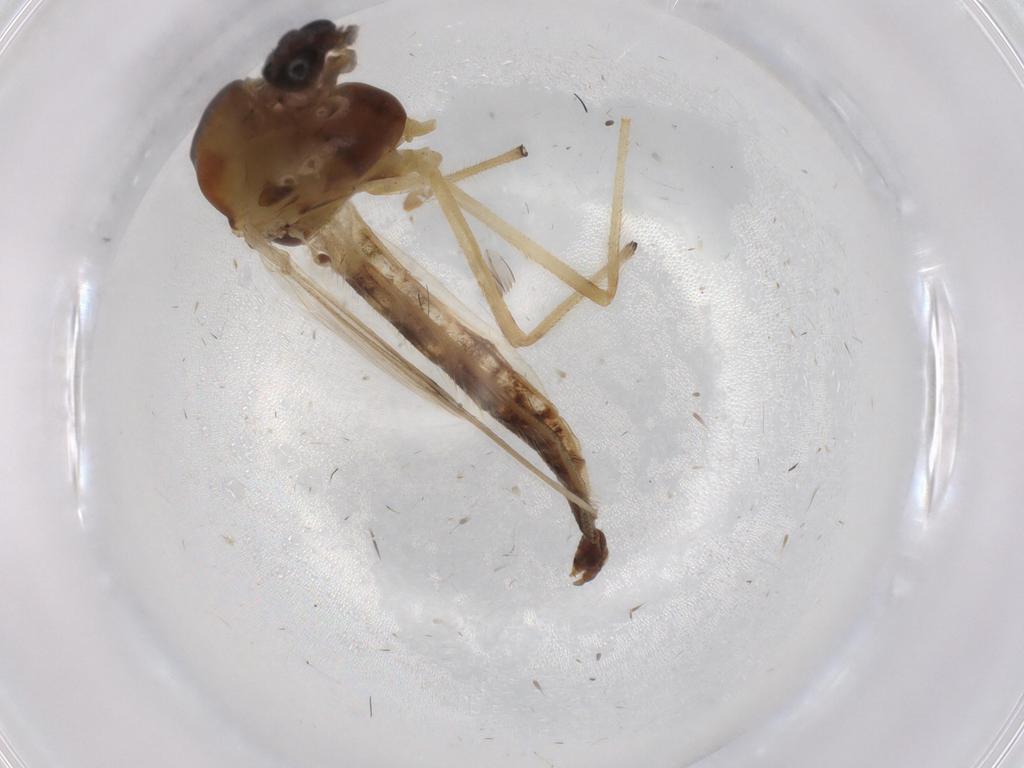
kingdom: Animalia
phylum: Arthropoda
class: Insecta
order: Diptera
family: Chironomidae
